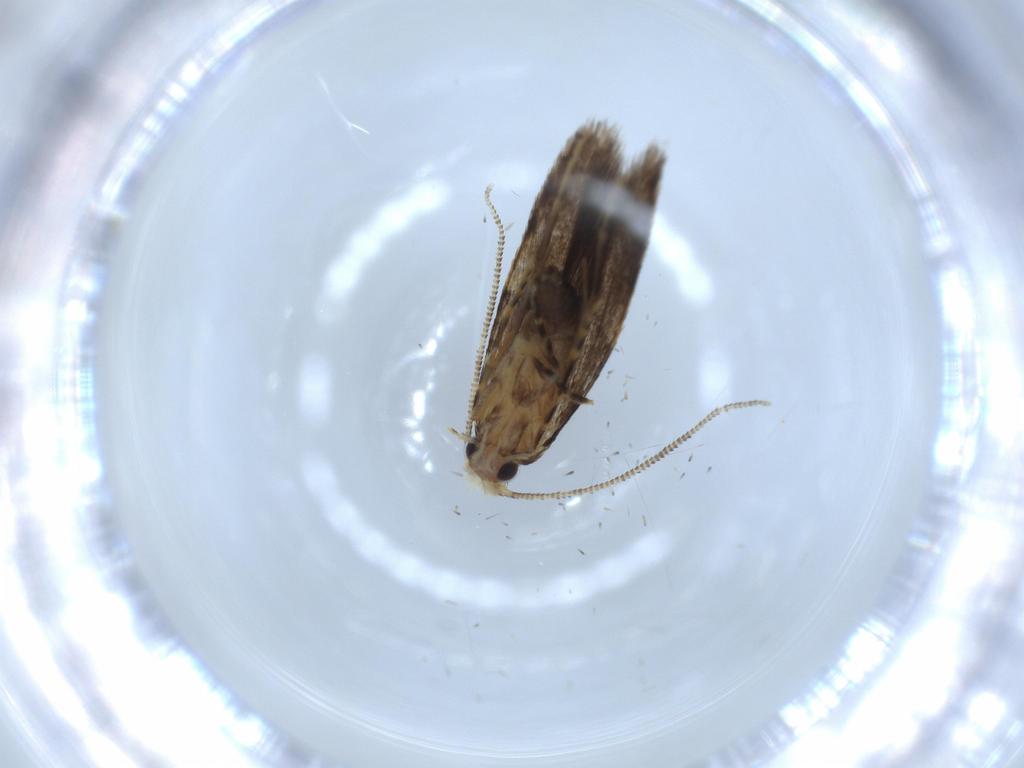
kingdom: Animalia
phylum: Arthropoda
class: Insecta
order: Lepidoptera
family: Tineidae
